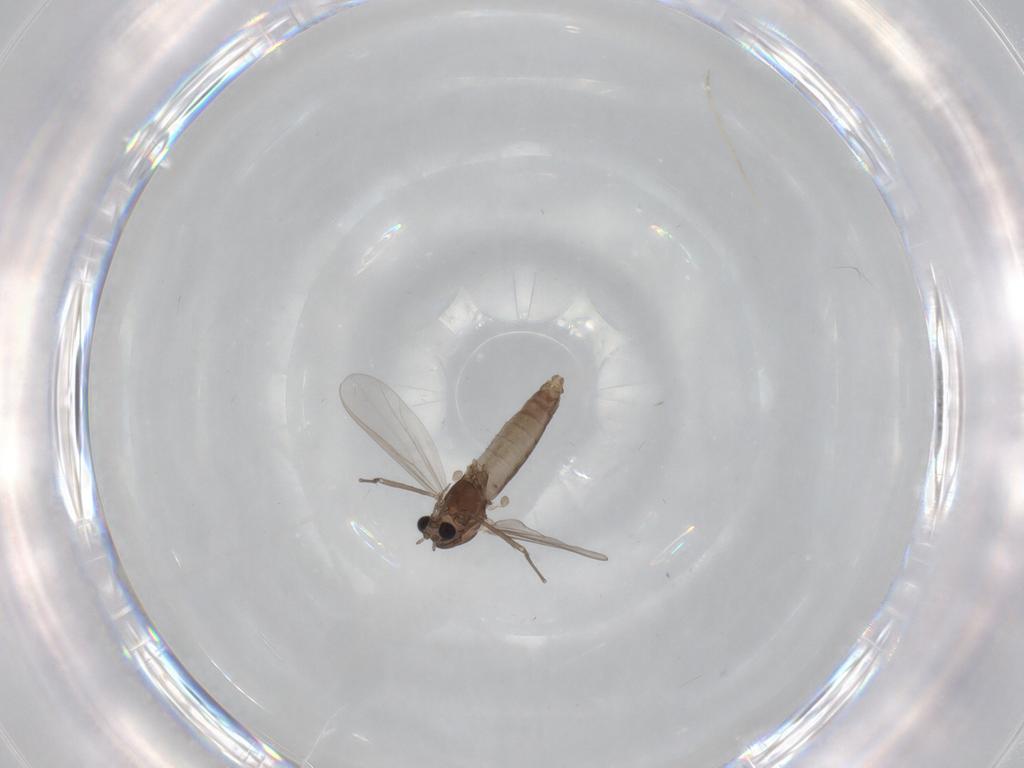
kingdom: Animalia
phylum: Arthropoda
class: Insecta
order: Diptera
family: Chironomidae
